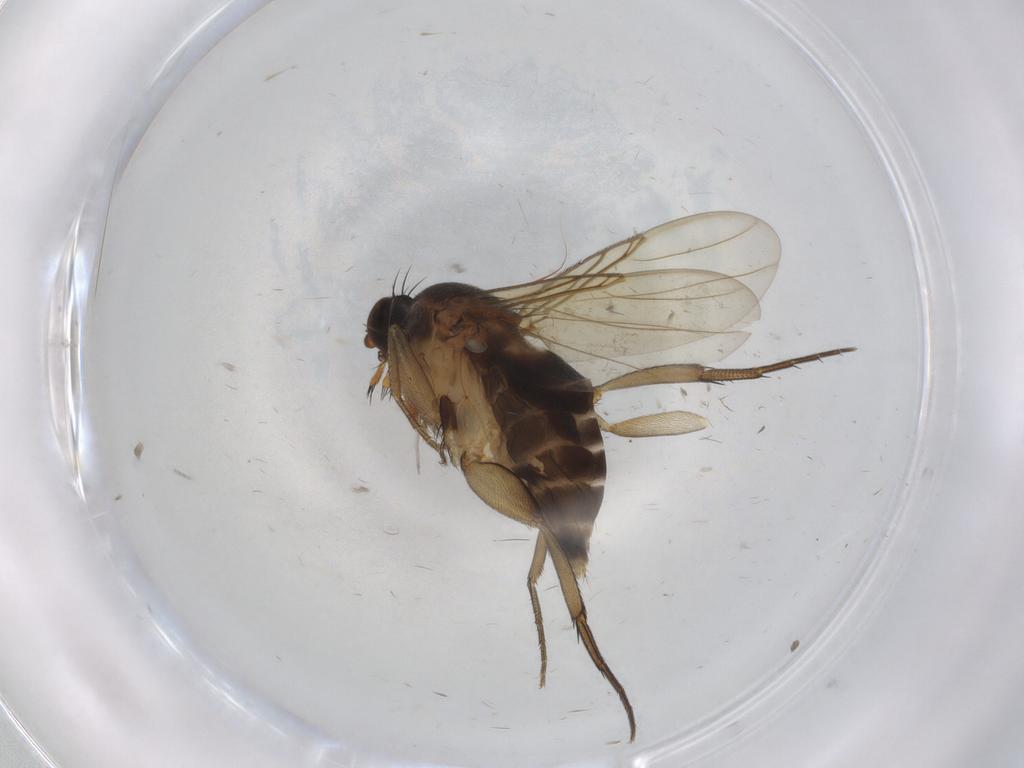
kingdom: Animalia
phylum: Arthropoda
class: Insecta
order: Diptera
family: Phoridae
